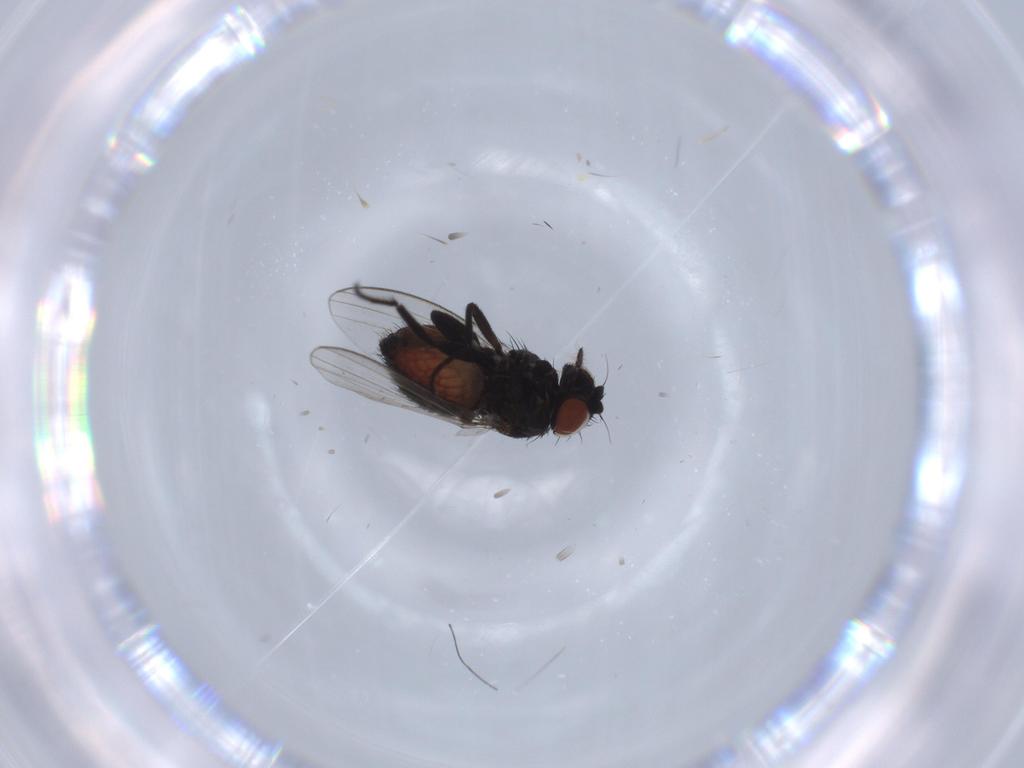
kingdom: Animalia
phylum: Arthropoda
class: Insecta
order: Diptera
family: Milichiidae
